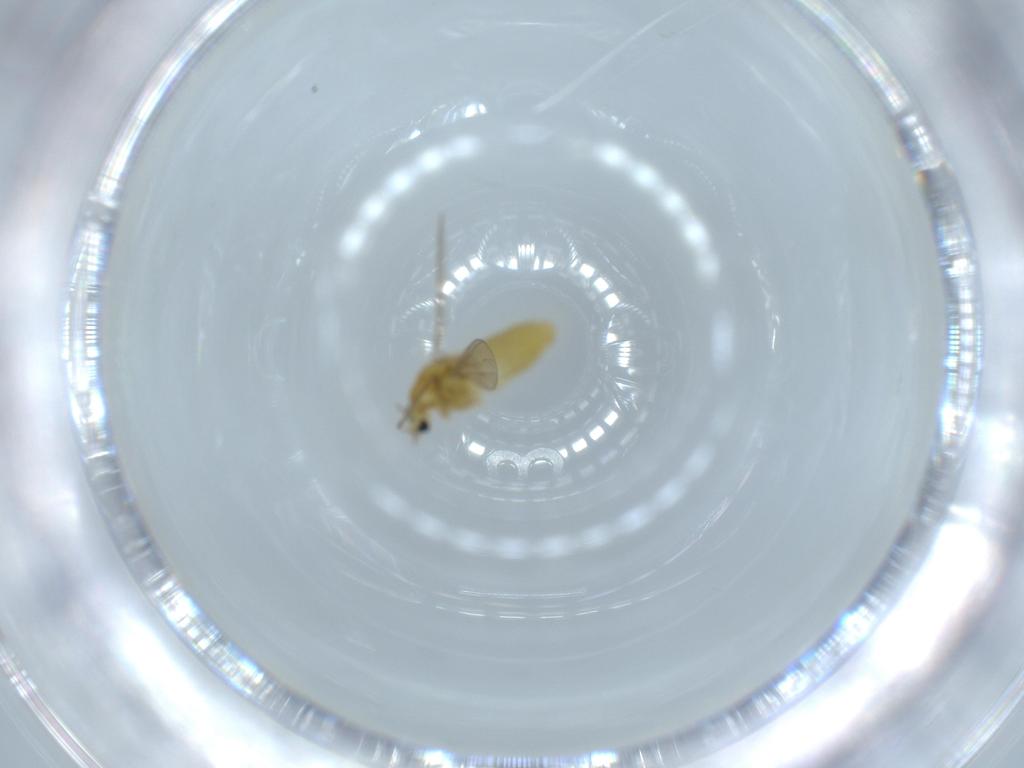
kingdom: Animalia
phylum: Arthropoda
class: Insecta
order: Diptera
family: Chironomidae
